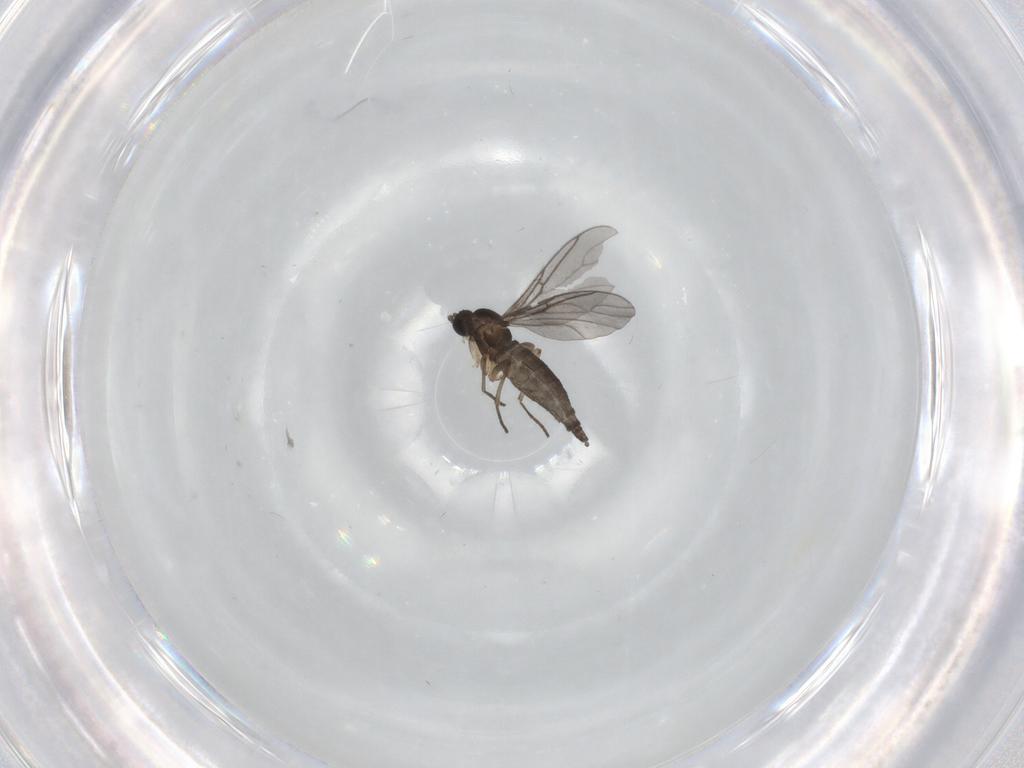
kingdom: Animalia
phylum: Arthropoda
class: Insecta
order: Diptera
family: Sciaridae
